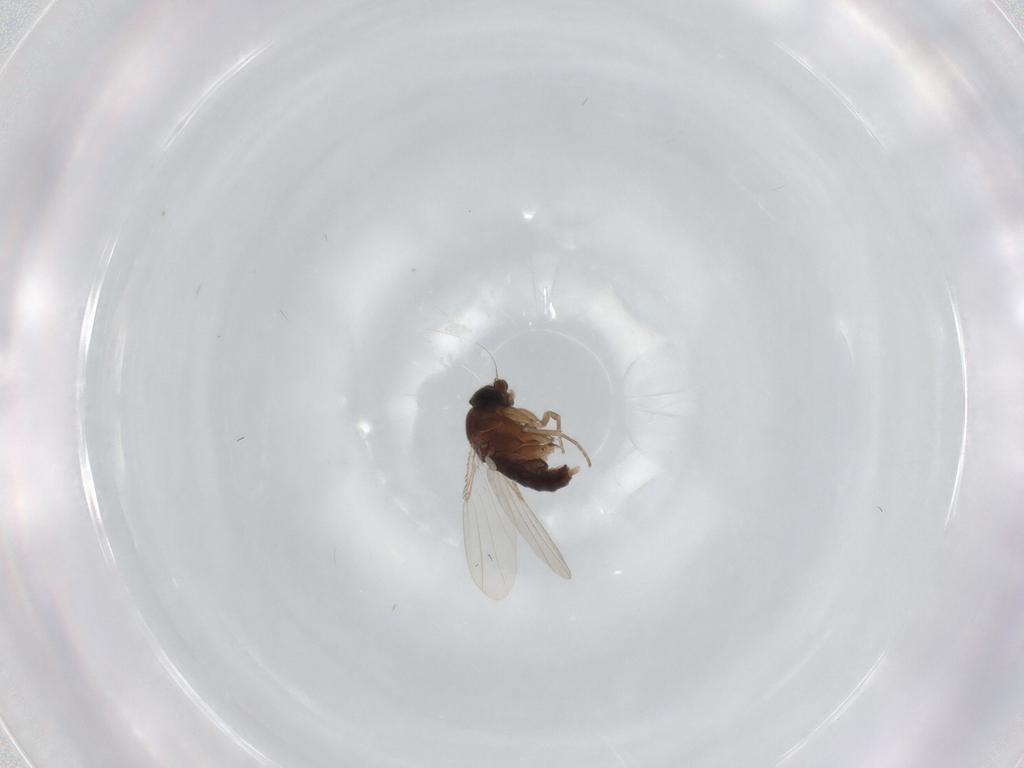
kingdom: Animalia
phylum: Arthropoda
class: Insecta
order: Diptera
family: Phoridae
